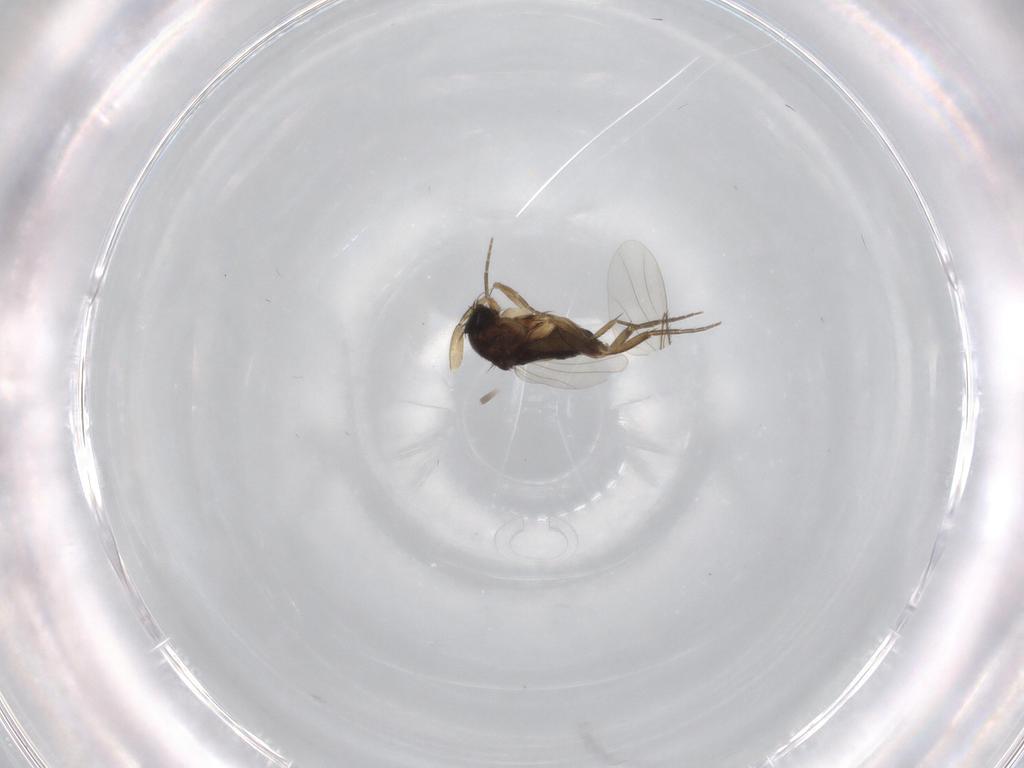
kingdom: Animalia
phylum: Arthropoda
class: Insecta
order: Diptera
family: Phoridae
